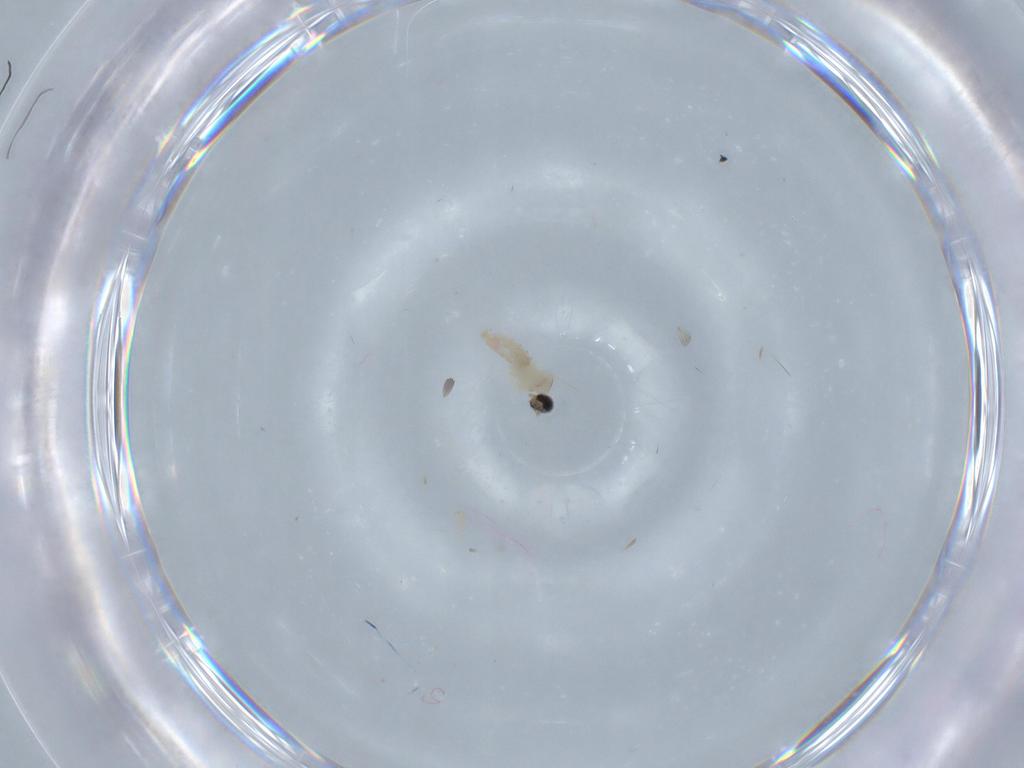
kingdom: Animalia
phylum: Arthropoda
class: Insecta
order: Diptera
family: Cecidomyiidae
